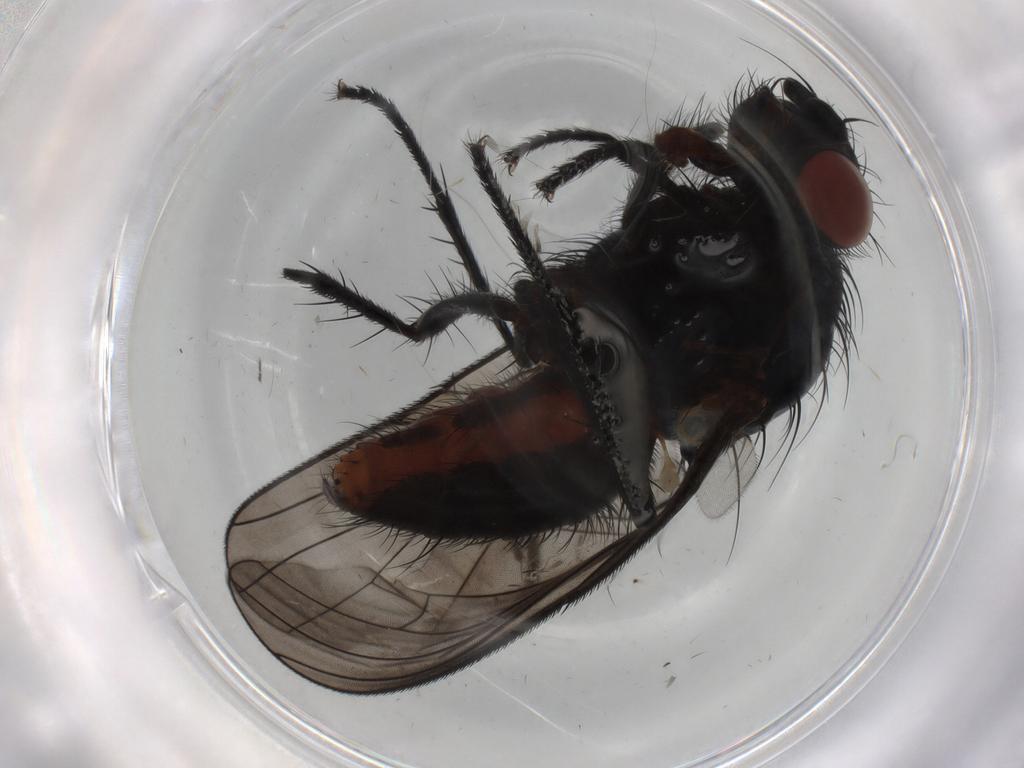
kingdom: Animalia
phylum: Arthropoda
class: Insecta
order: Diptera
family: Anthomyiidae
